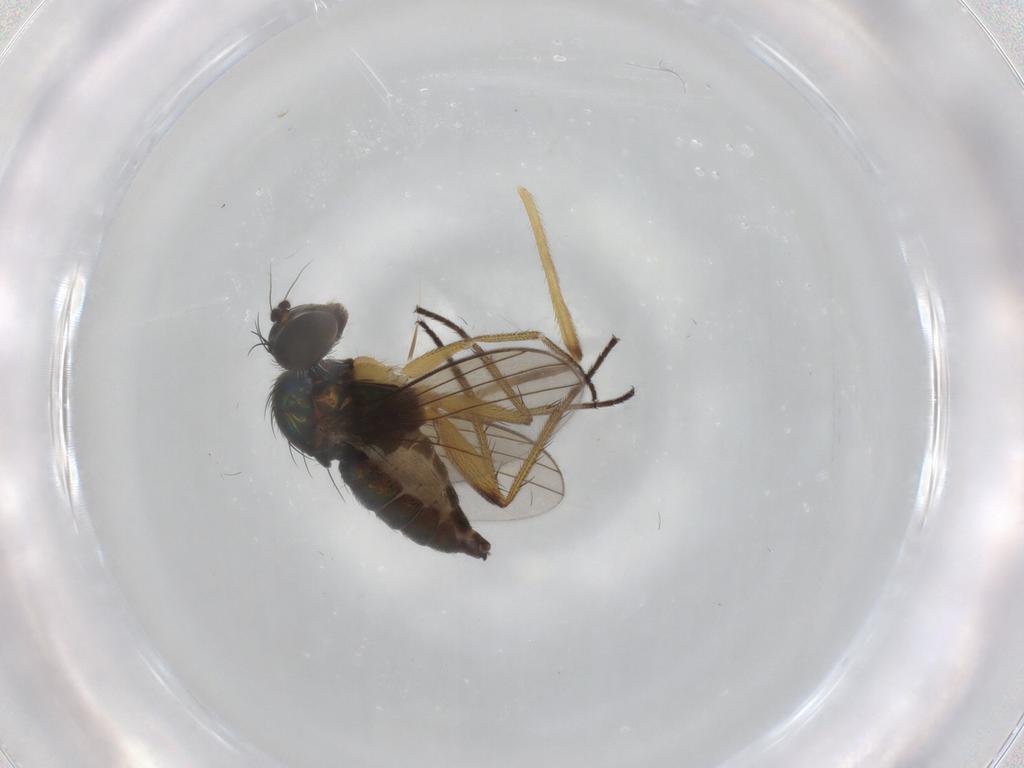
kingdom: Animalia
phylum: Arthropoda
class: Insecta
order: Diptera
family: Dolichopodidae
